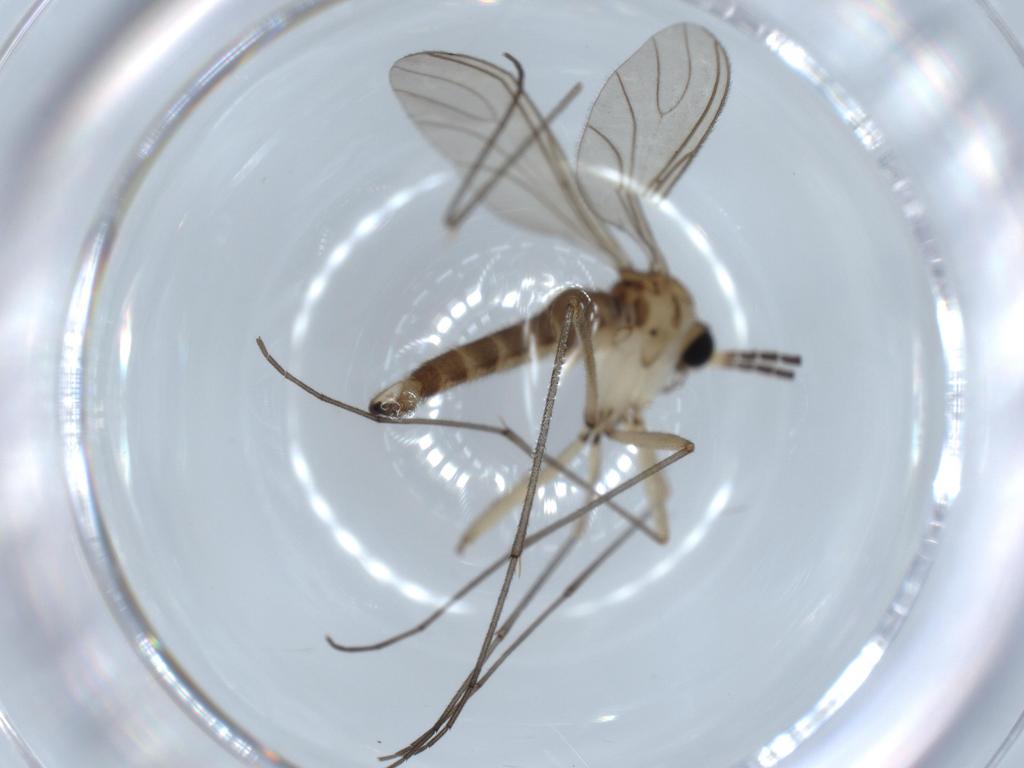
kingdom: Animalia
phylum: Arthropoda
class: Insecta
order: Diptera
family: Sciaridae
